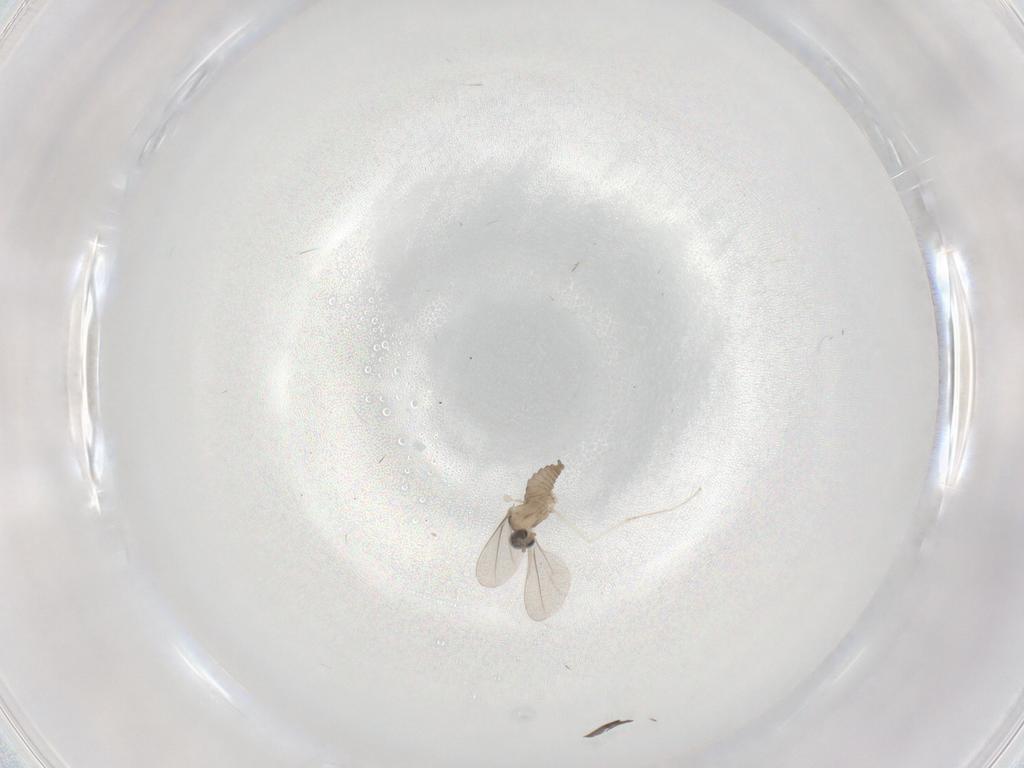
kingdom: Animalia
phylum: Arthropoda
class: Insecta
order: Diptera
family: Cecidomyiidae
